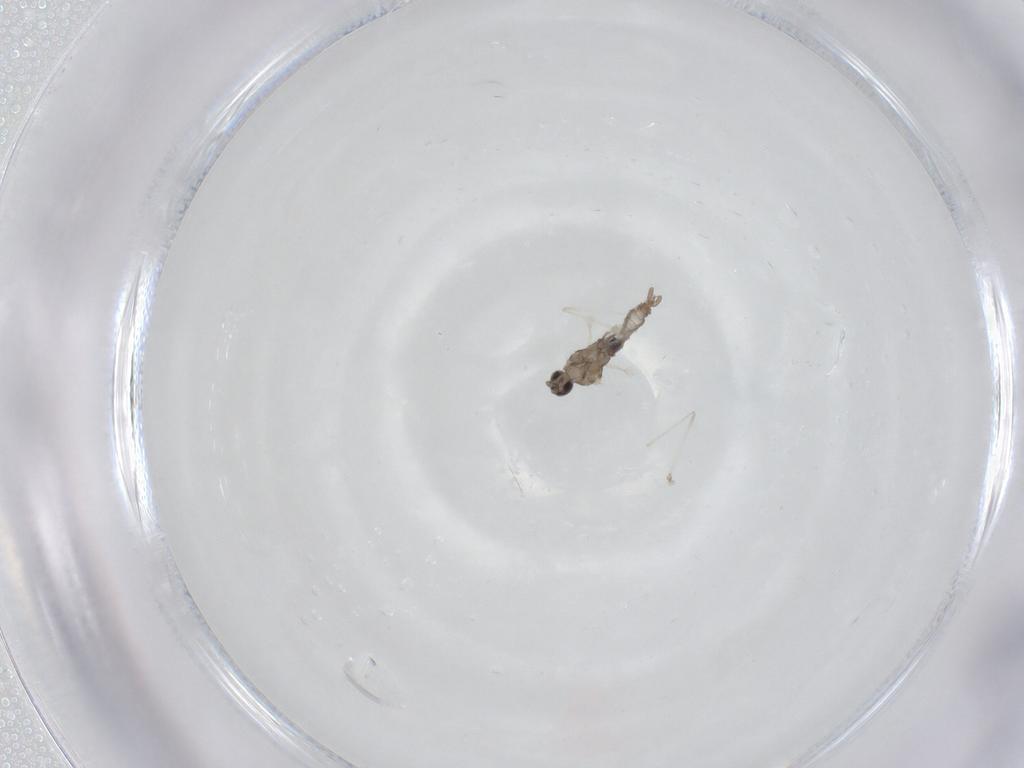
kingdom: Animalia
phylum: Arthropoda
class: Insecta
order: Diptera
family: Cecidomyiidae
